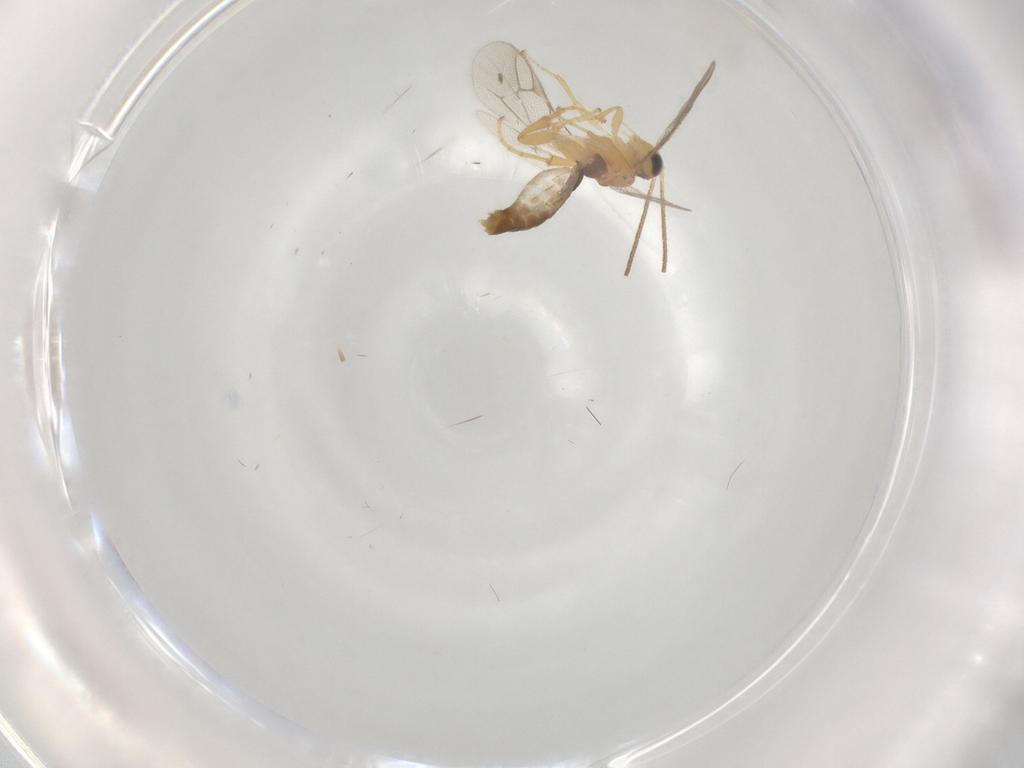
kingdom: Animalia
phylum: Arthropoda
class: Insecta
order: Hymenoptera
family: Ichneumonidae
